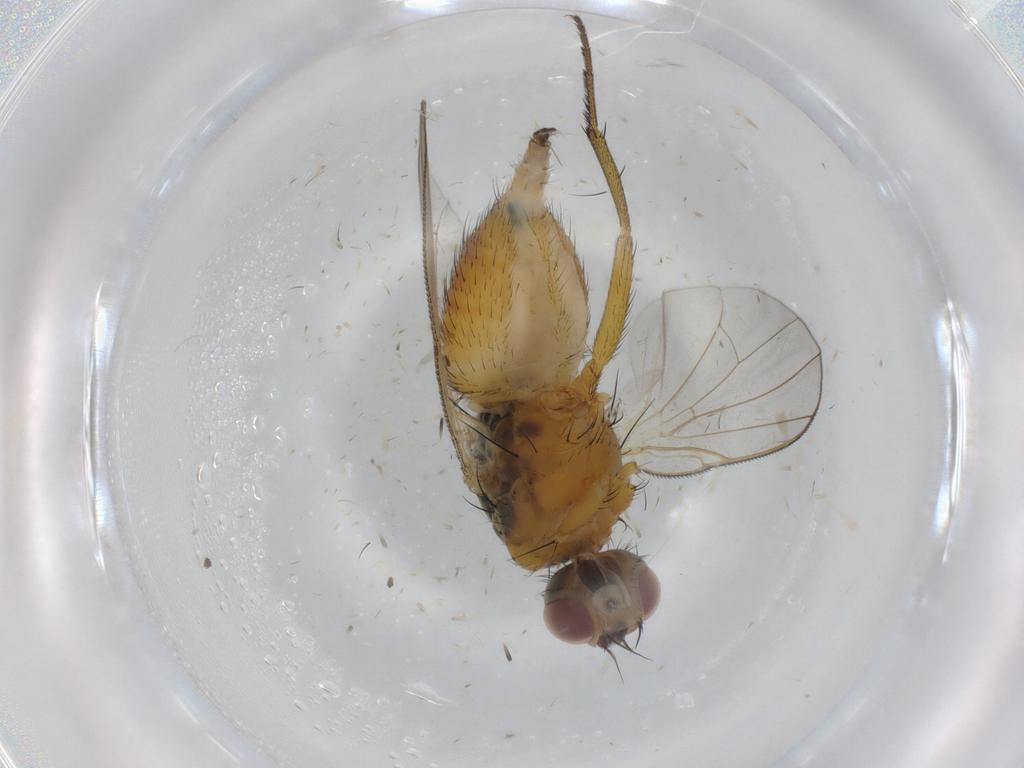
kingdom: Animalia
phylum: Arthropoda
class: Insecta
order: Diptera
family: Muscidae
